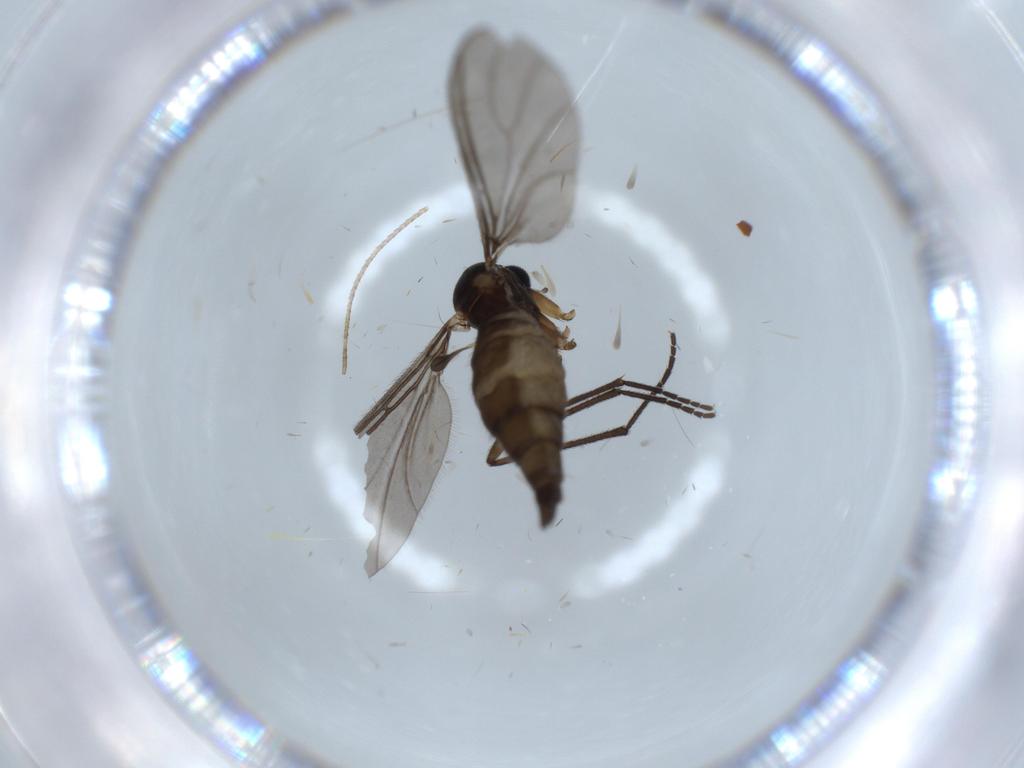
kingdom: Animalia
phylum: Arthropoda
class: Insecta
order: Diptera
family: Sciaridae
